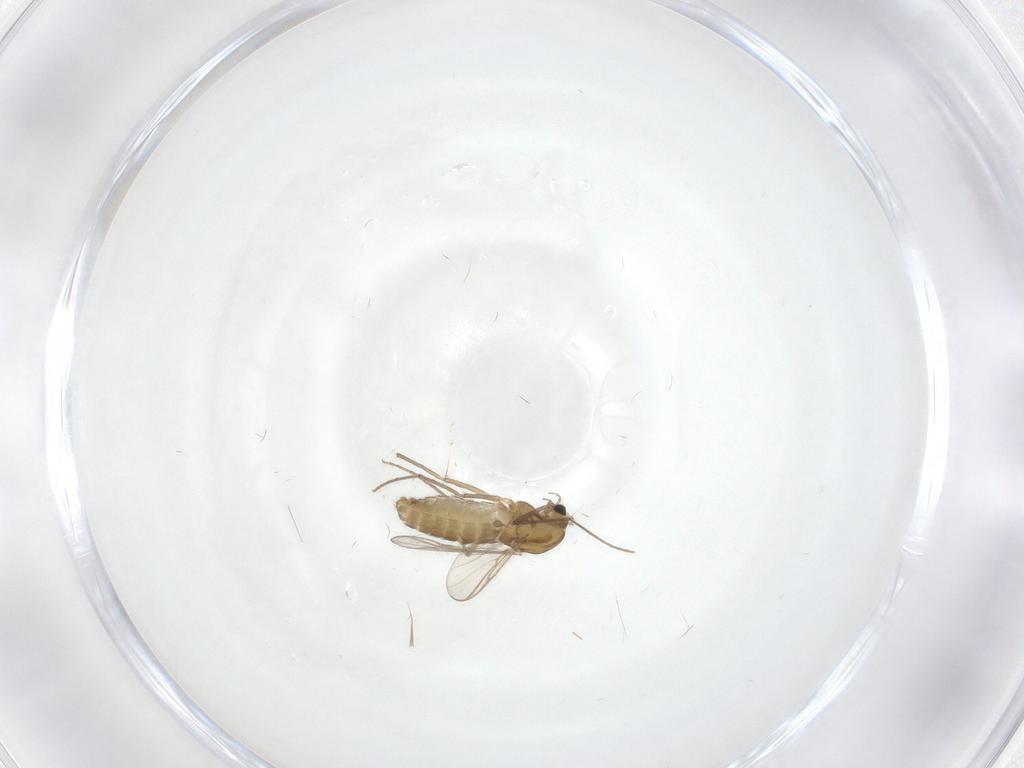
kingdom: Animalia
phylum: Arthropoda
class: Insecta
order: Diptera
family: Chironomidae
